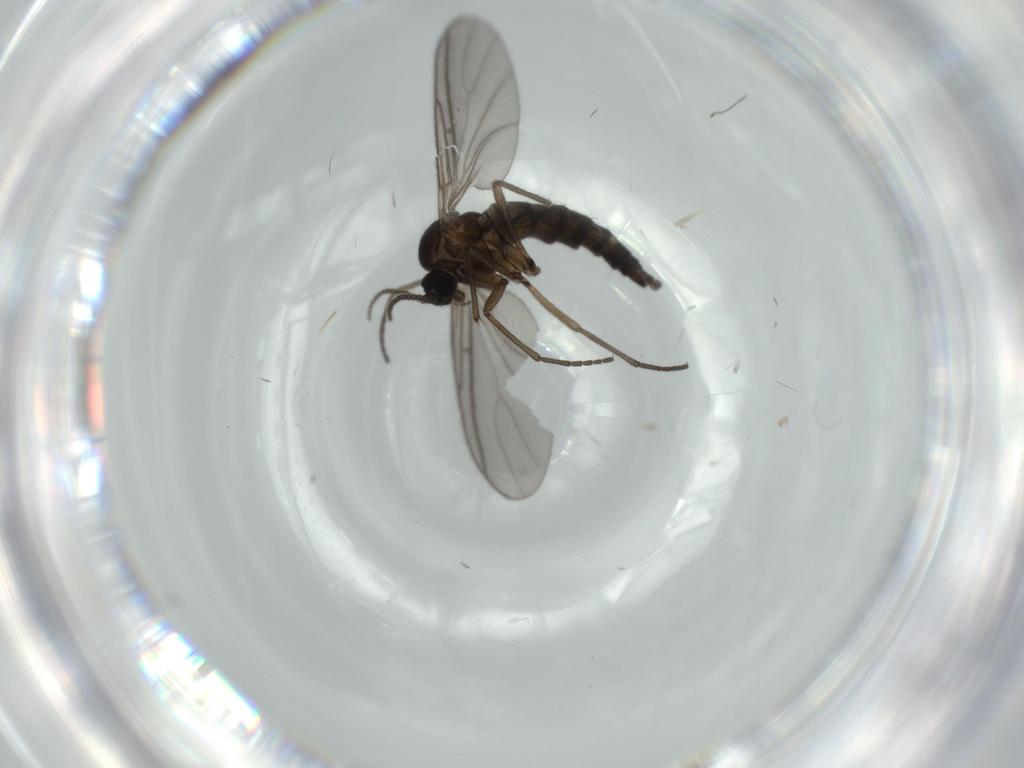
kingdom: Animalia
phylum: Arthropoda
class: Insecta
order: Diptera
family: Sciaridae
